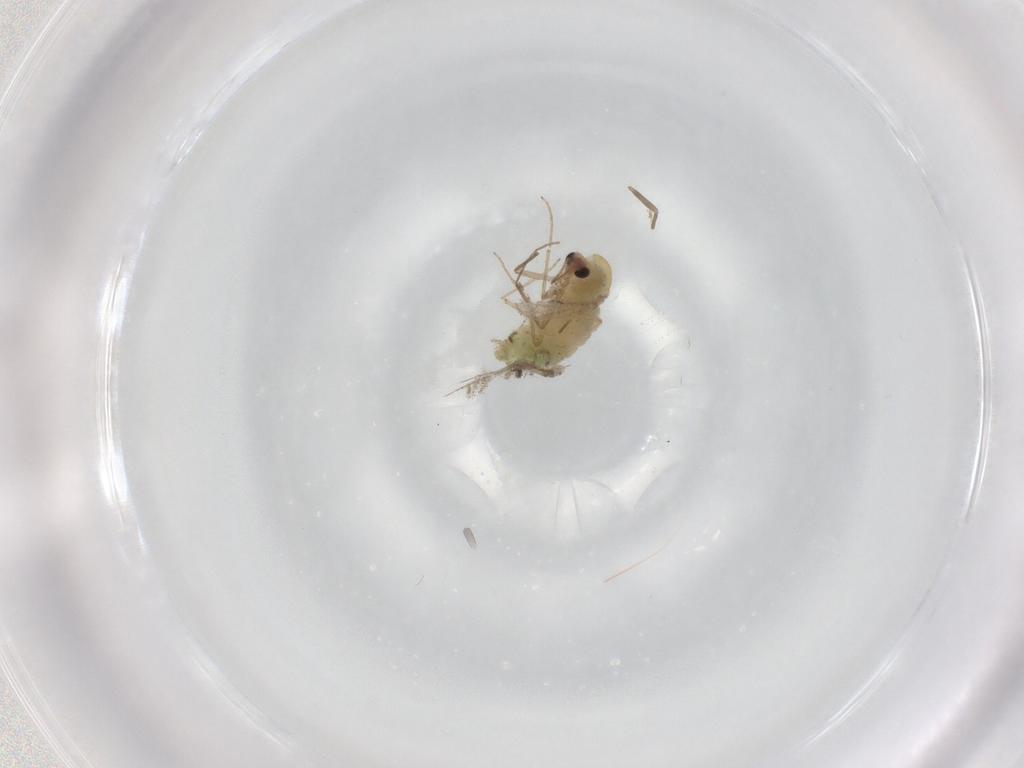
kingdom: Animalia
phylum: Arthropoda
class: Insecta
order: Diptera
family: Chironomidae
